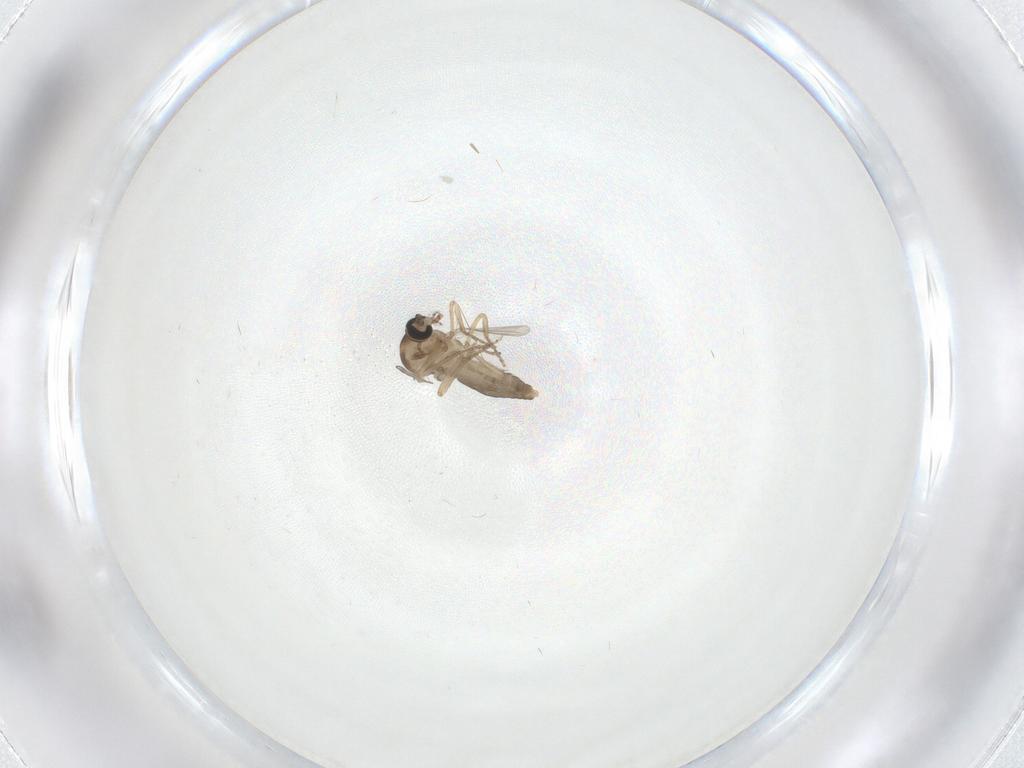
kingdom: Animalia
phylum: Arthropoda
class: Insecta
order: Diptera
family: Ceratopogonidae
